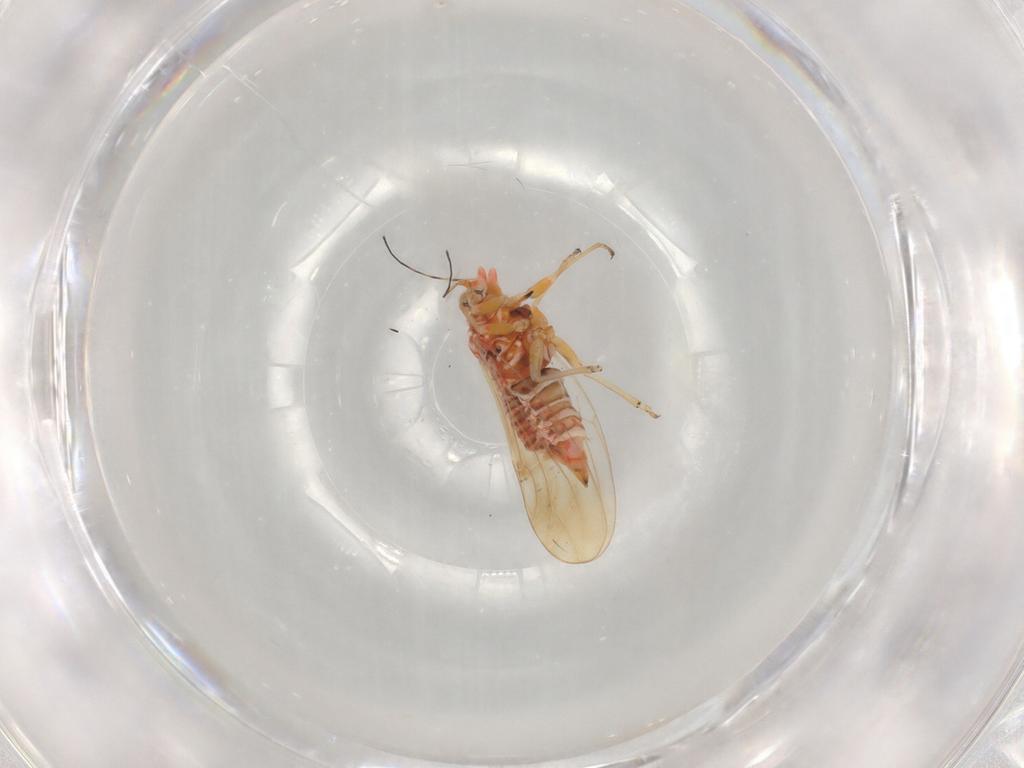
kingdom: Animalia
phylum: Arthropoda
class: Insecta
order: Hemiptera
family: Psyllidae
